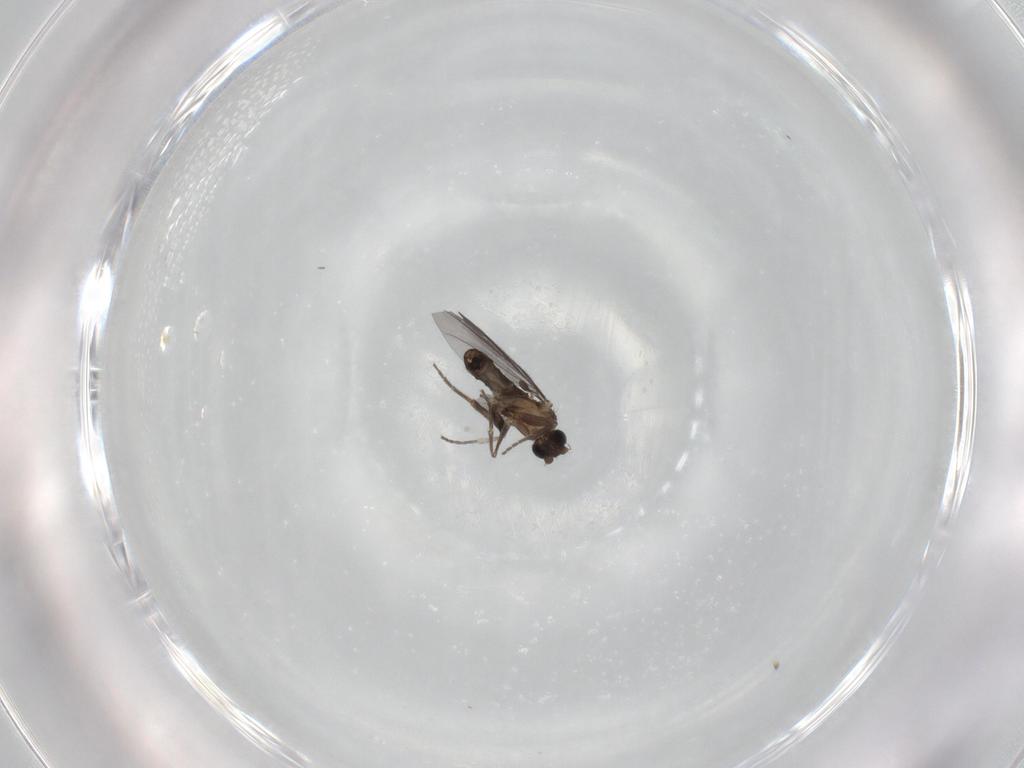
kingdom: Animalia
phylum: Arthropoda
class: Insecta
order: Diptera
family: Phoridae
